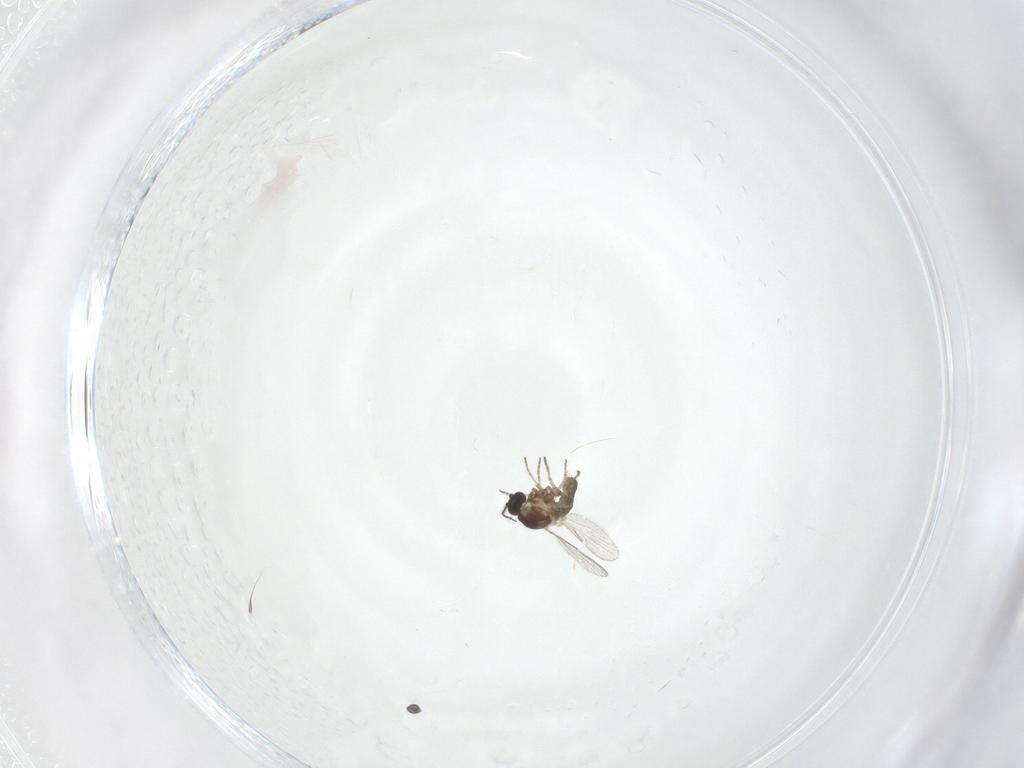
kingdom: Animalia
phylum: Arthropoda
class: Insecta
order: Diptera
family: Ceratopogonidae
